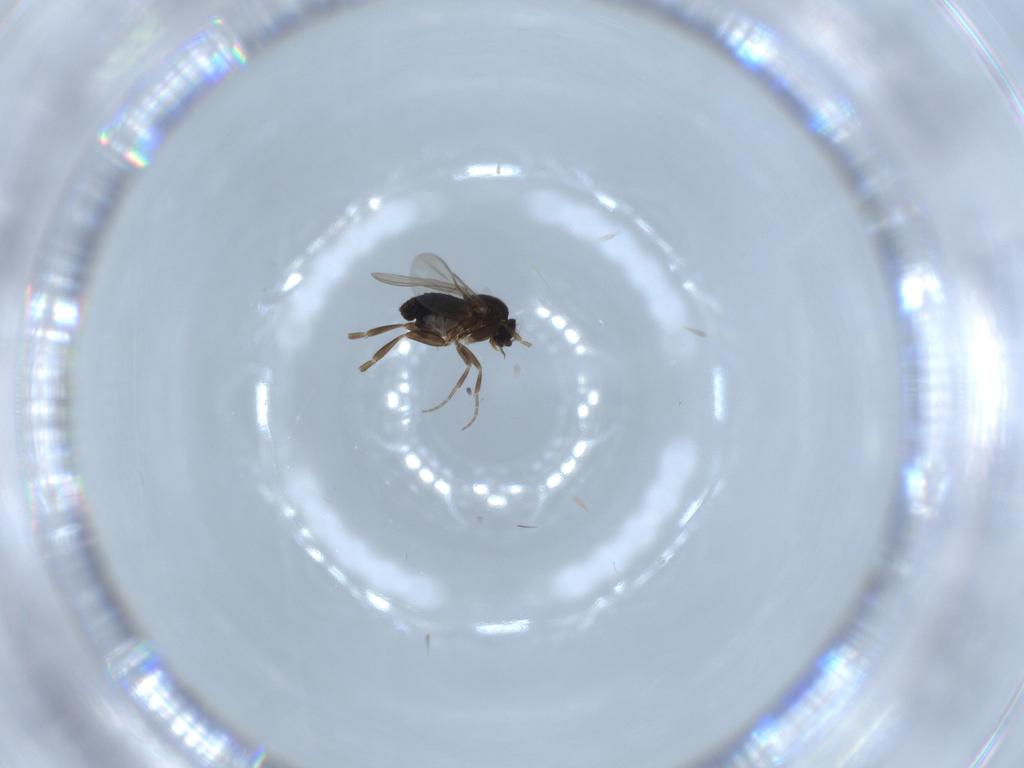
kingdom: Animalia
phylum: Arthropoda
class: Insecta
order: Diptera
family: Phoridae
